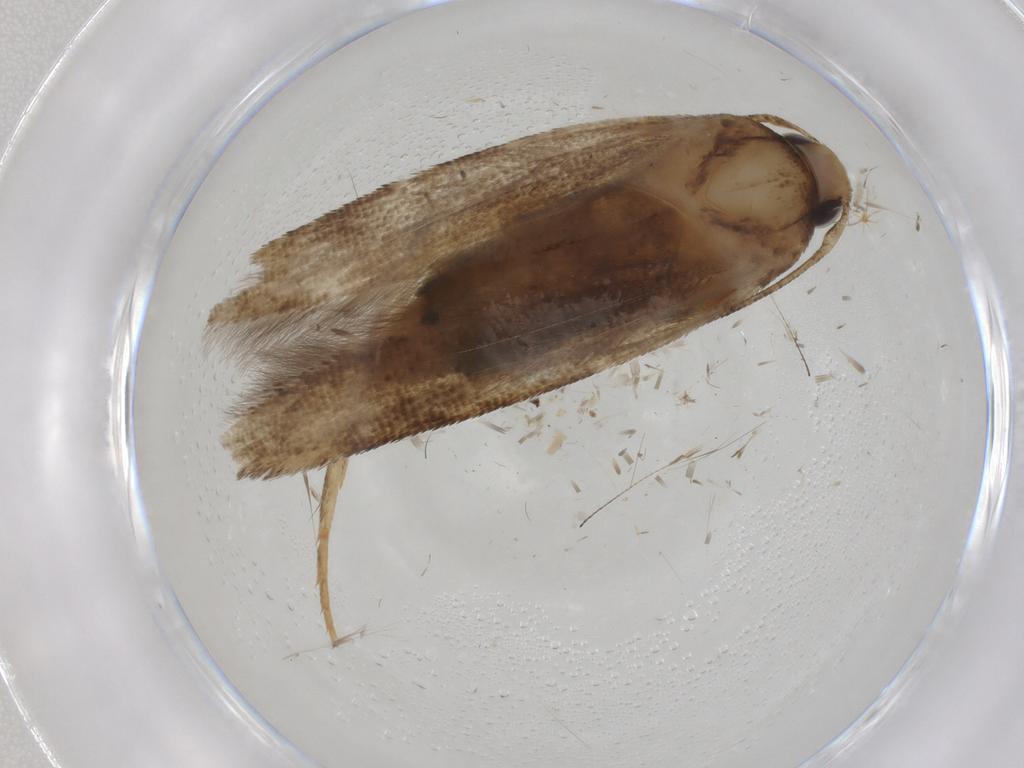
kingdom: Animalia
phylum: Arthropoda
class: Insecta
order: Lepidoptera
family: Coleophoridae
